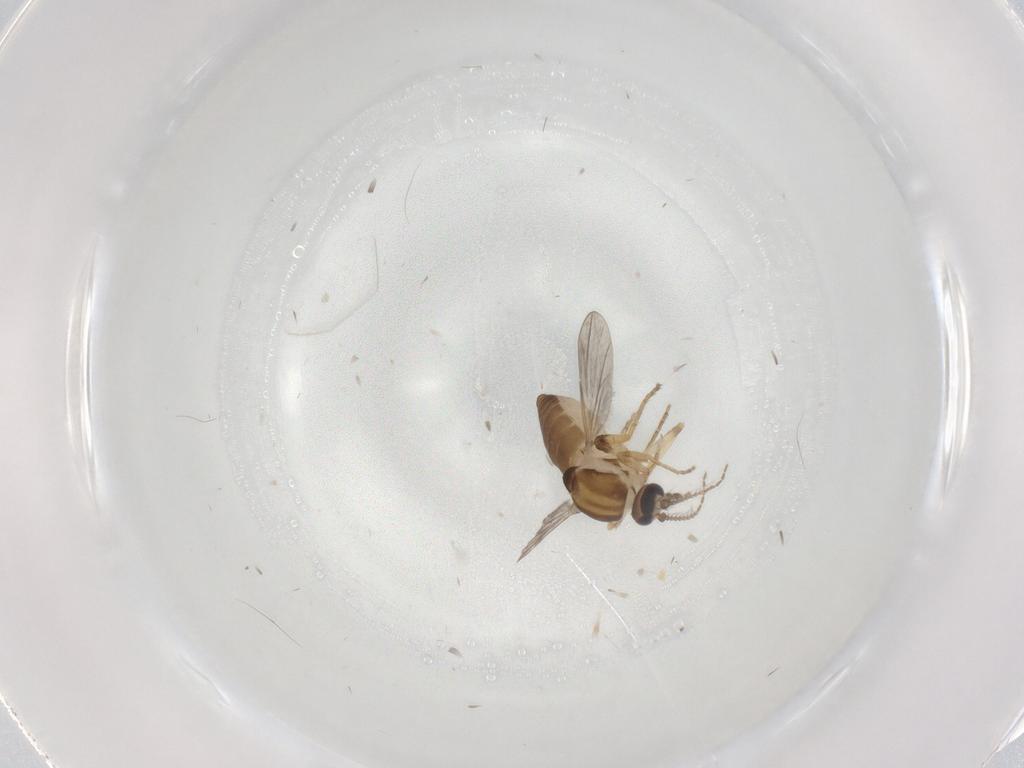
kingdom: Animalia
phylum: Arthropoda
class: Insecta
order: Diptera
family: Ceratopogonidae
